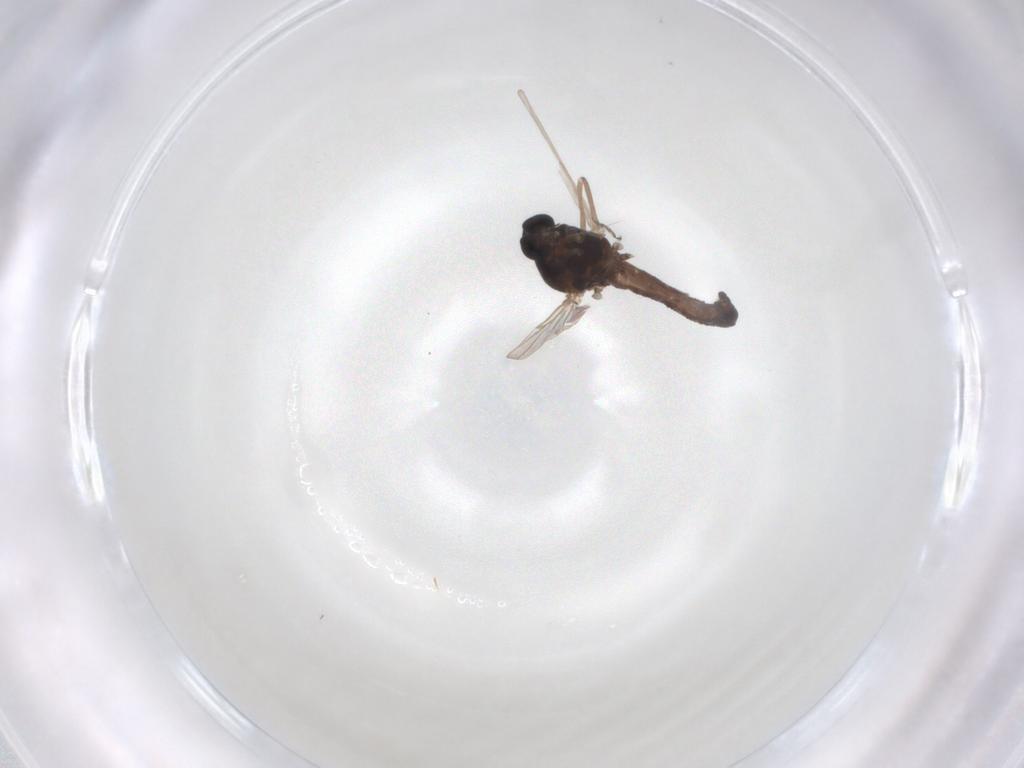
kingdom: Animalia
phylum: Arthropoda
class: Insecta
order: Diptera
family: Ceratopogonidae
